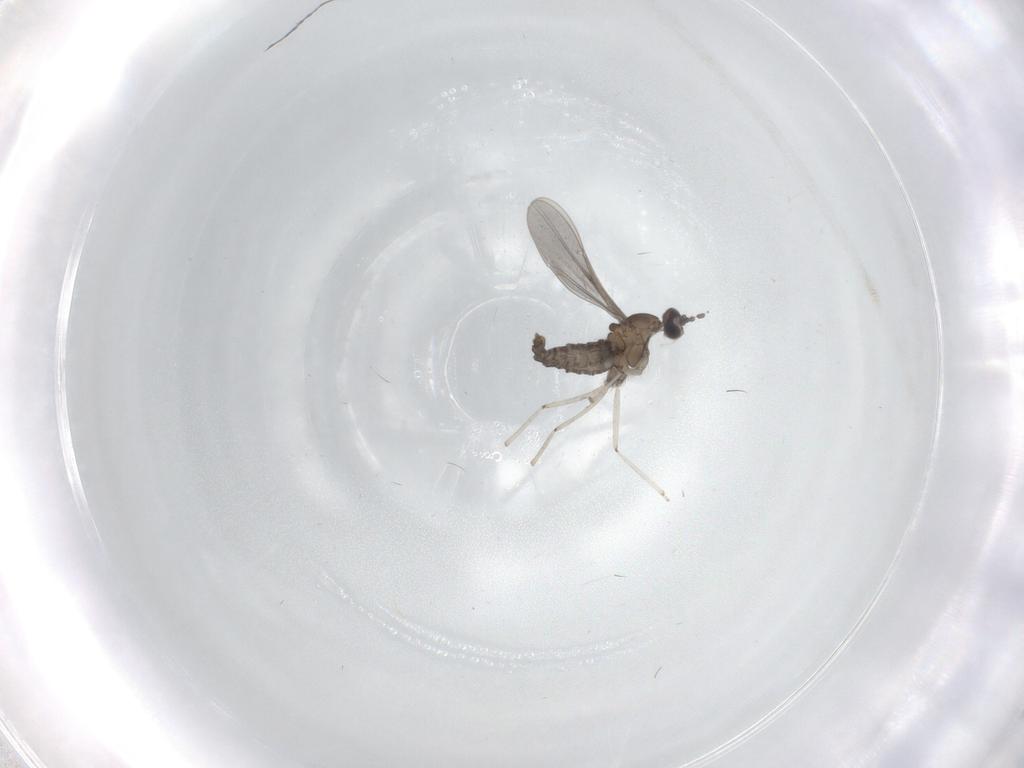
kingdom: Animalia
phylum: Arthropoda
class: Insecta
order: Diptera
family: Cecidomyiidae
